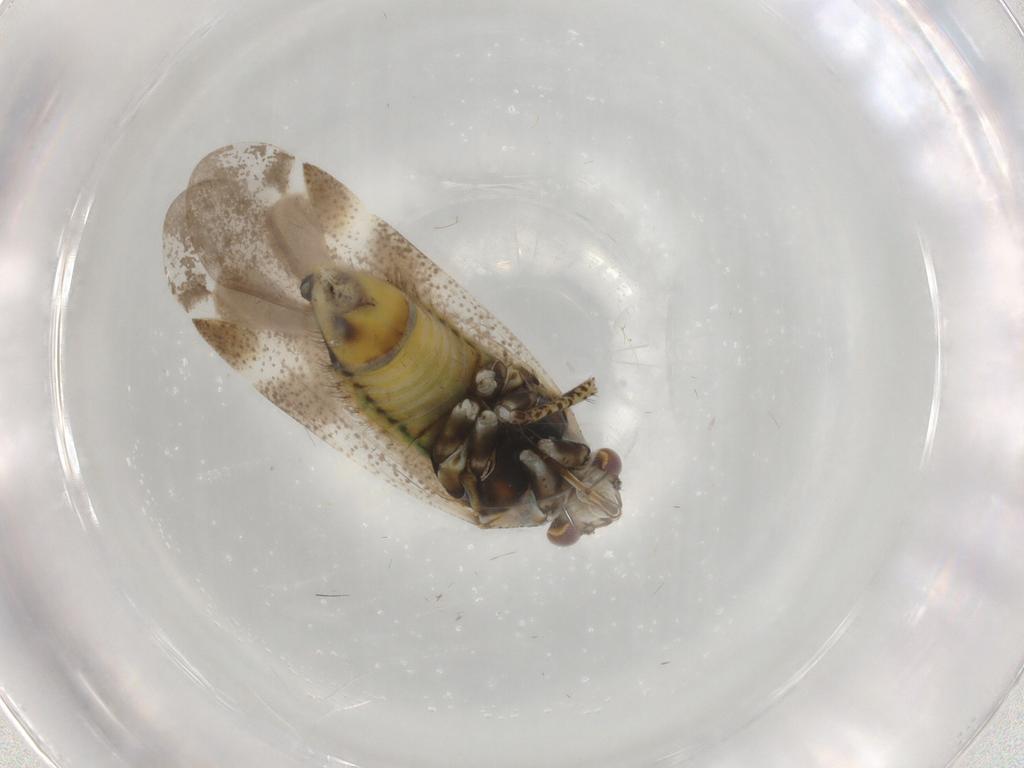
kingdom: Animalia
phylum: Arthropoda
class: Insecta
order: Hemiptera
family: Miridae
